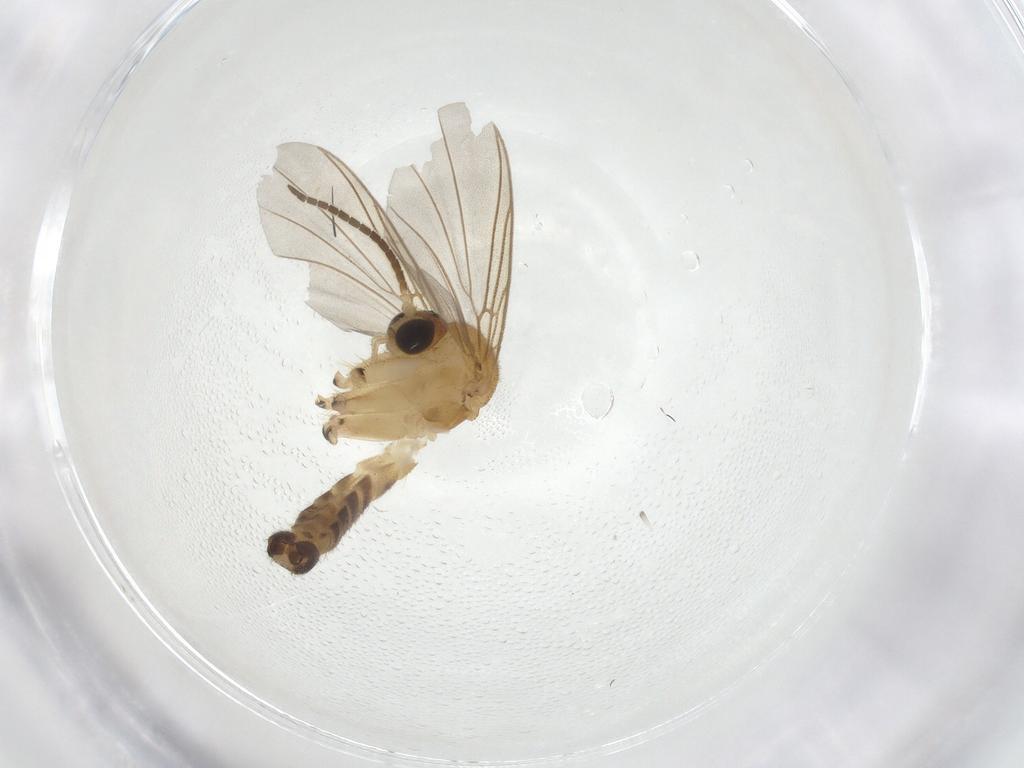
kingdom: Animalia
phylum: Arthropoda
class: Insecta
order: Diptera
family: Mycetophilidae
